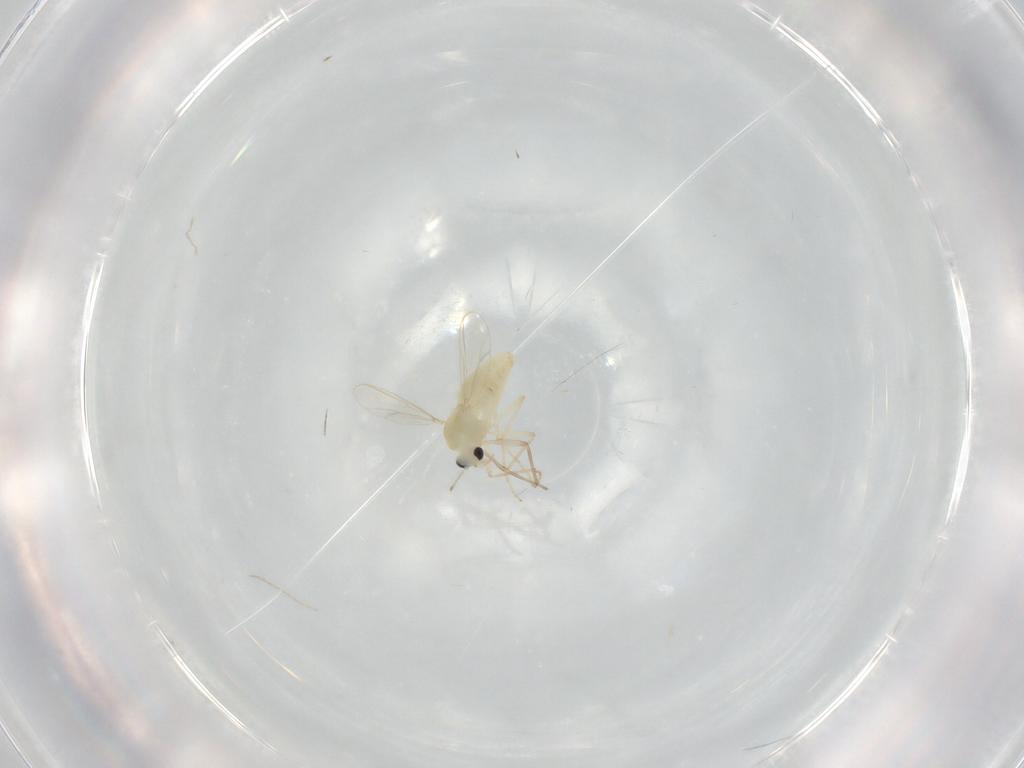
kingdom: Animalia
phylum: Arthropoda
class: Insecta
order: Diptera
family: Chironomidae
